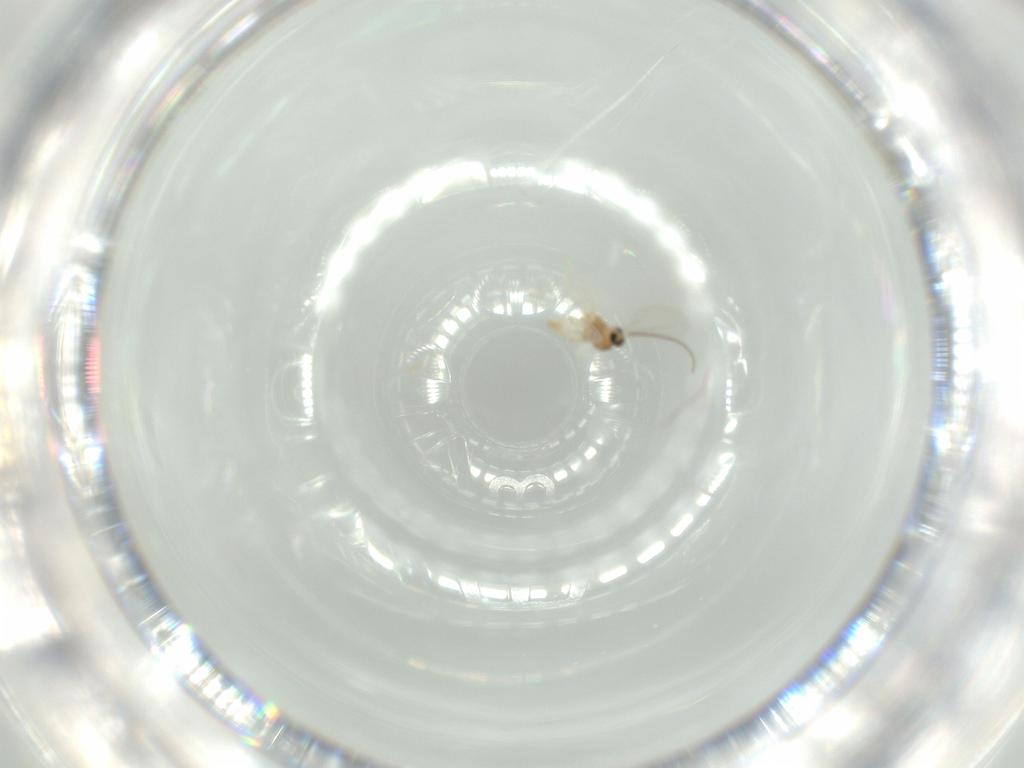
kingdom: Animalia
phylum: Arthropoda
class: Insecta
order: Diptera
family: Cecidomyiidae
